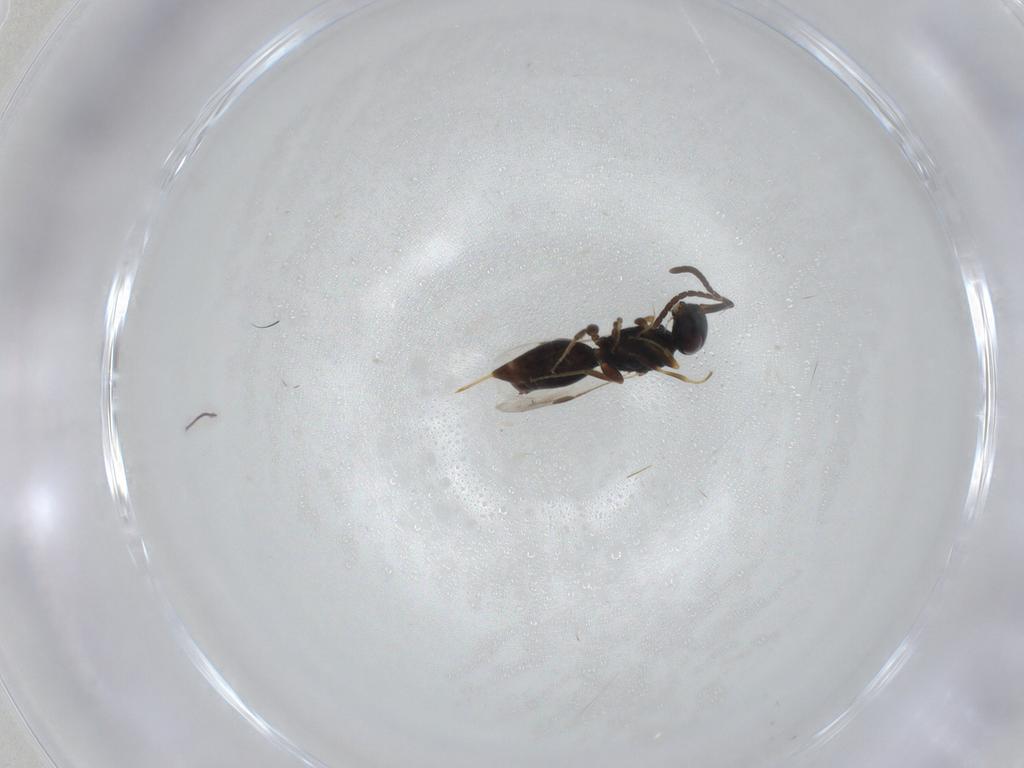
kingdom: Animalia
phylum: Arthropoda
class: Insecta
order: Hymenoptera
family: Megaspilidae
